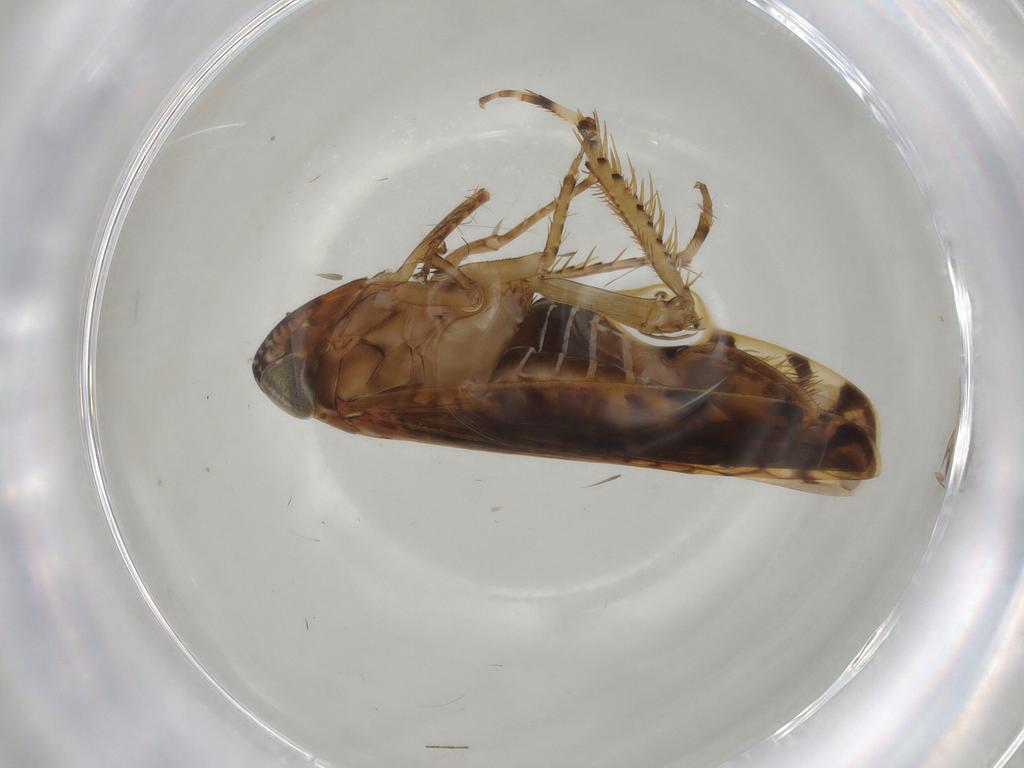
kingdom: Animalia
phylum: Arthropoda
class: Insecta
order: Hemiptera
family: Cicadellidae
